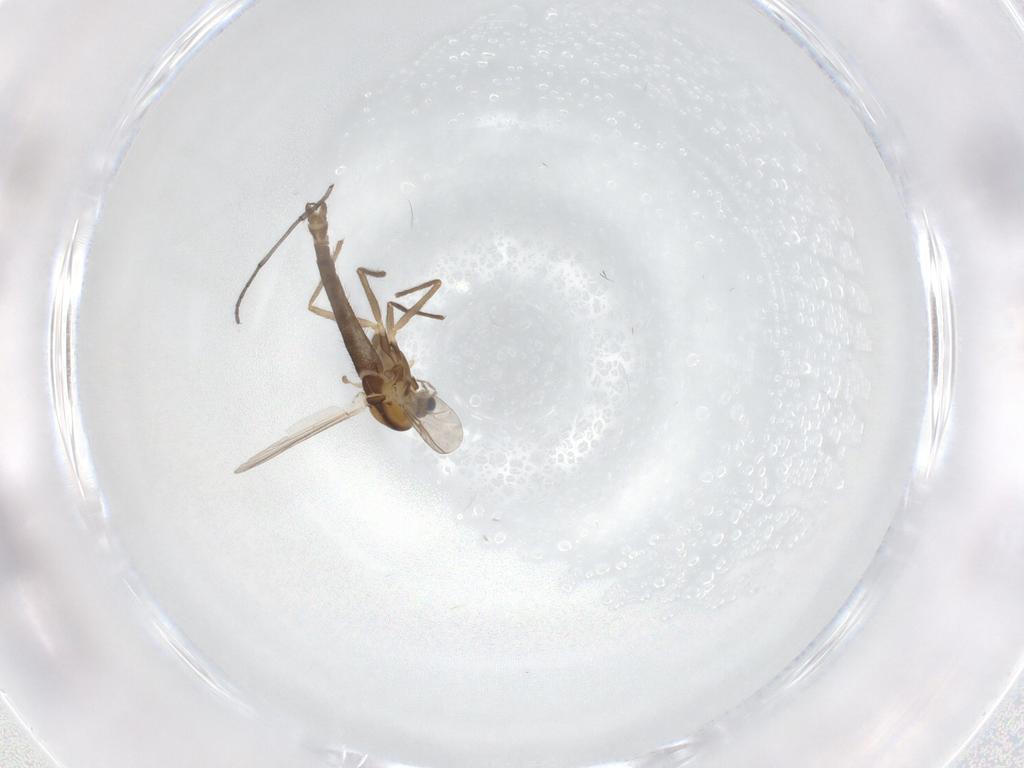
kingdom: Animalia
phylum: Arthropoda
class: Insecta
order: Diptera
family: Chironomidae
